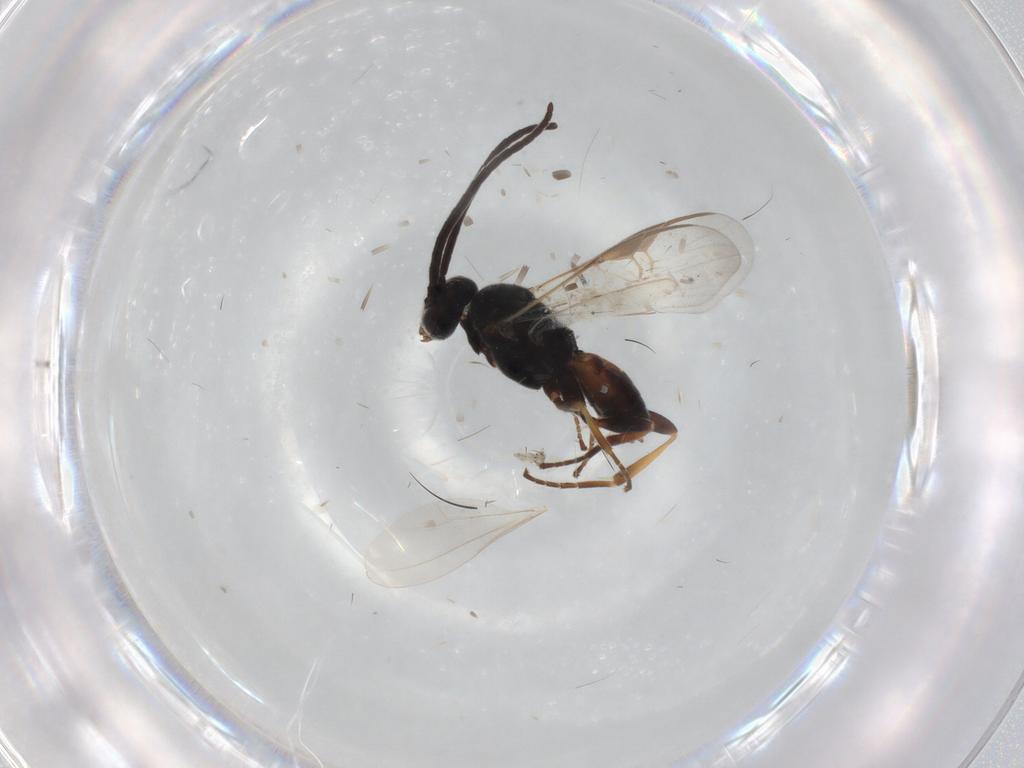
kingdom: Animalia
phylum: Arthropoda
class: Insecta
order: Hymenoptera
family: Braconidae
